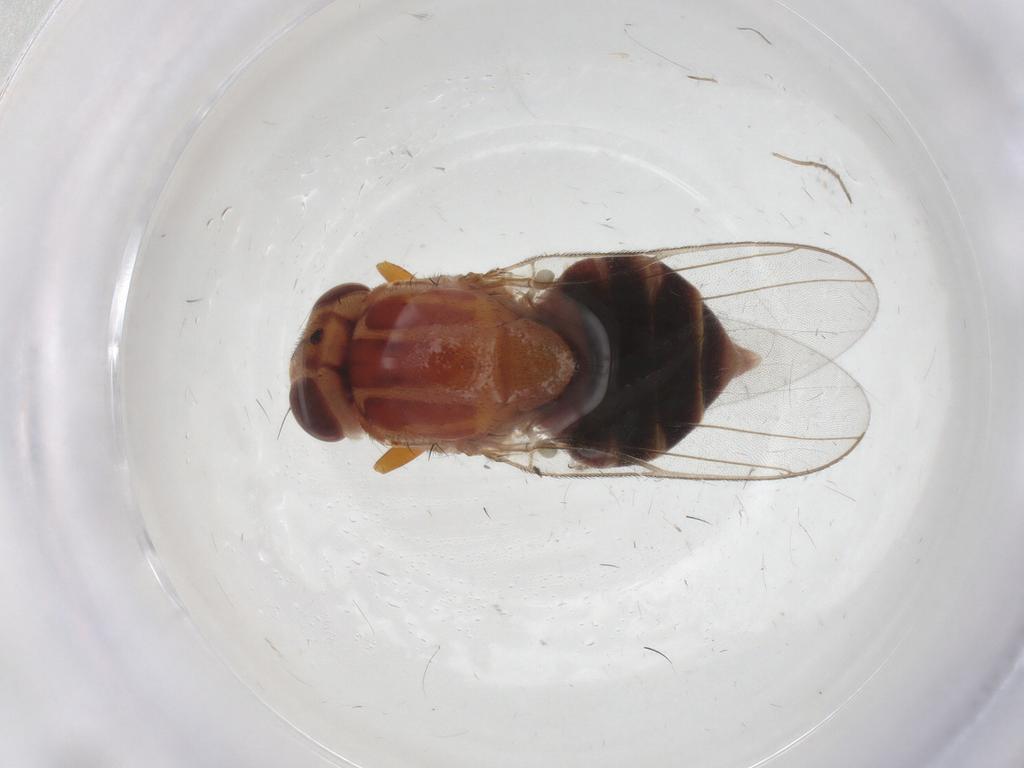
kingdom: Animalia
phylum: Arthropoda
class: Insecta
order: Diptera
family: Chloropidae
